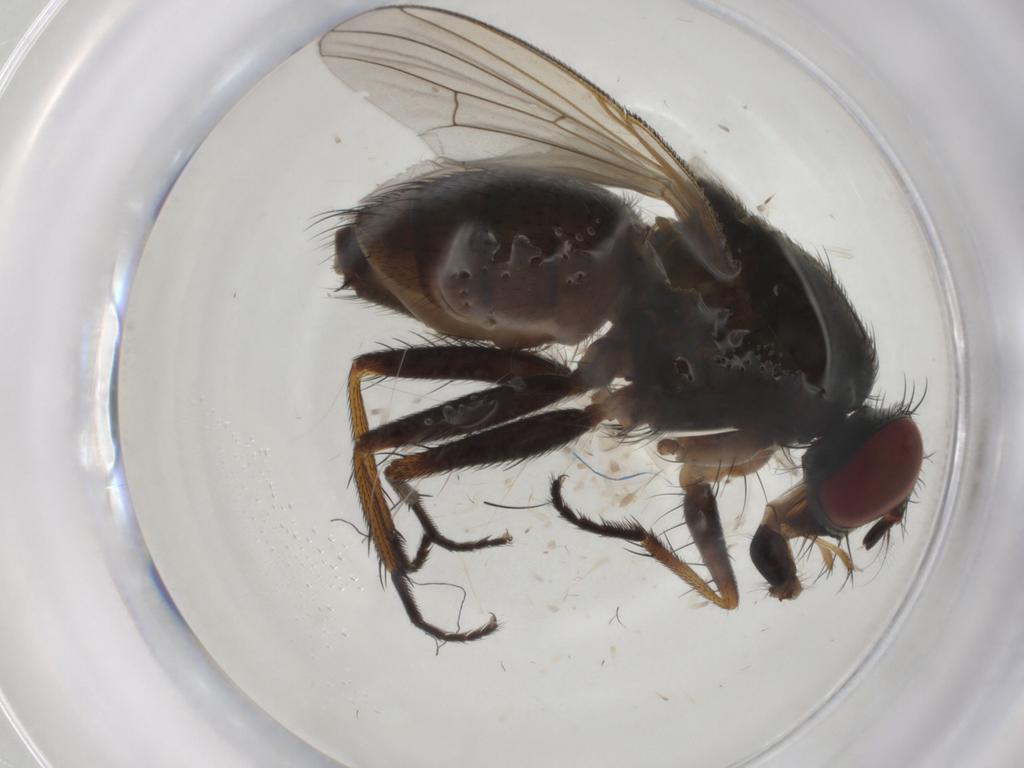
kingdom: Animalia
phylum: Arthropoda
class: Insecta
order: Diptera
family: Muscidae
